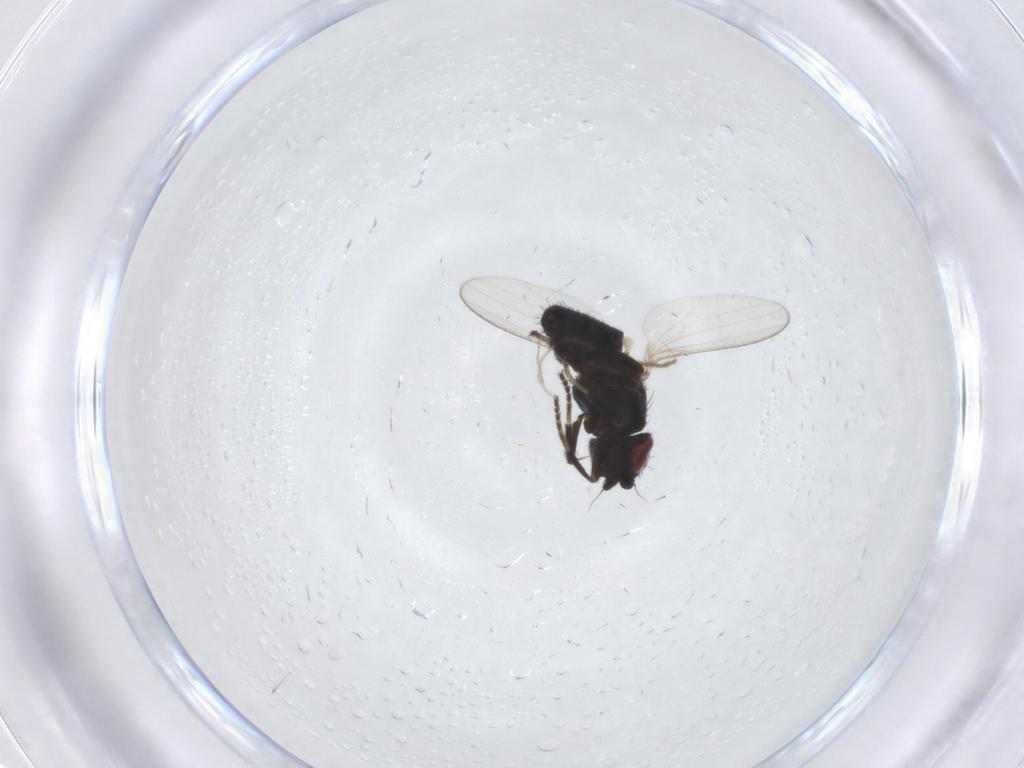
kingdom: Animalia
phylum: Arthropoda
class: Insecta
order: Diptera
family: Milichiidae
